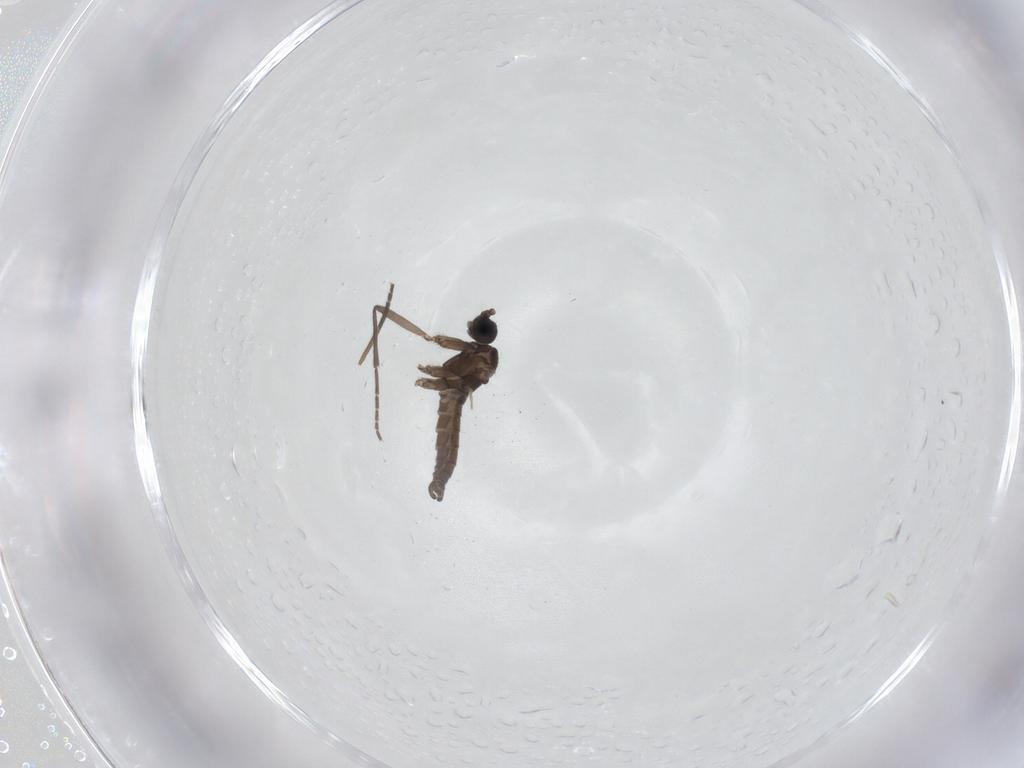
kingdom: Animalia
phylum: Arthropoda
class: Insecta
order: Diptera
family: Sciaridae
